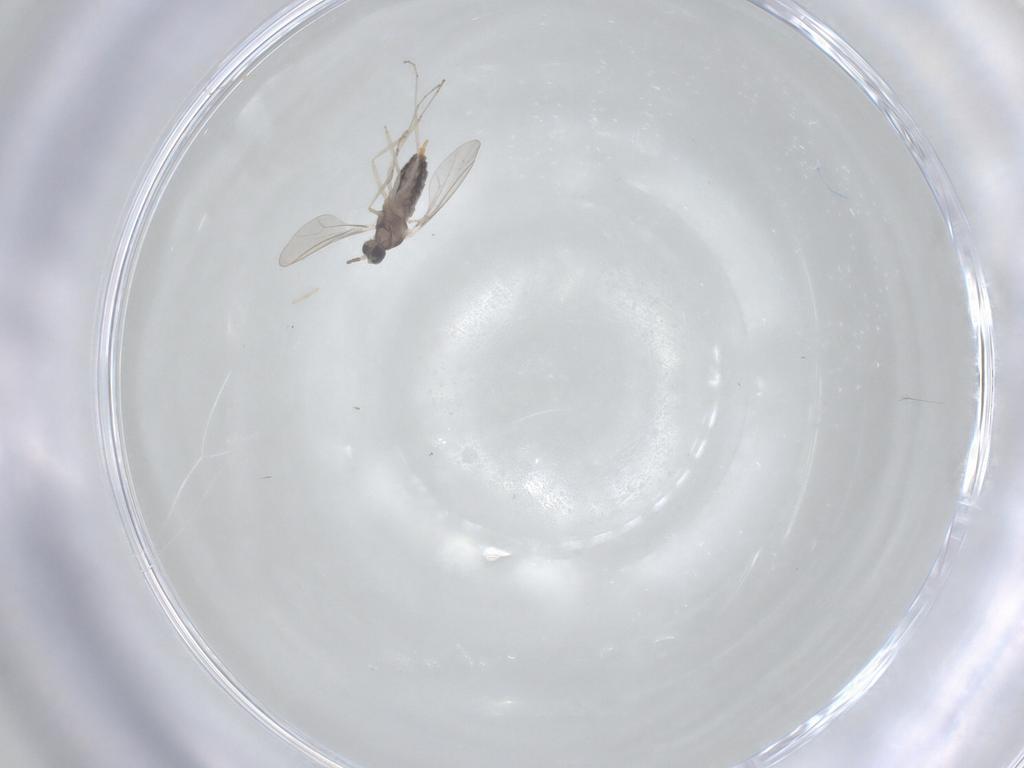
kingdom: Animalia
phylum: Arthropoda
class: Insecta
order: Diptera
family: Cecidomyiidae
